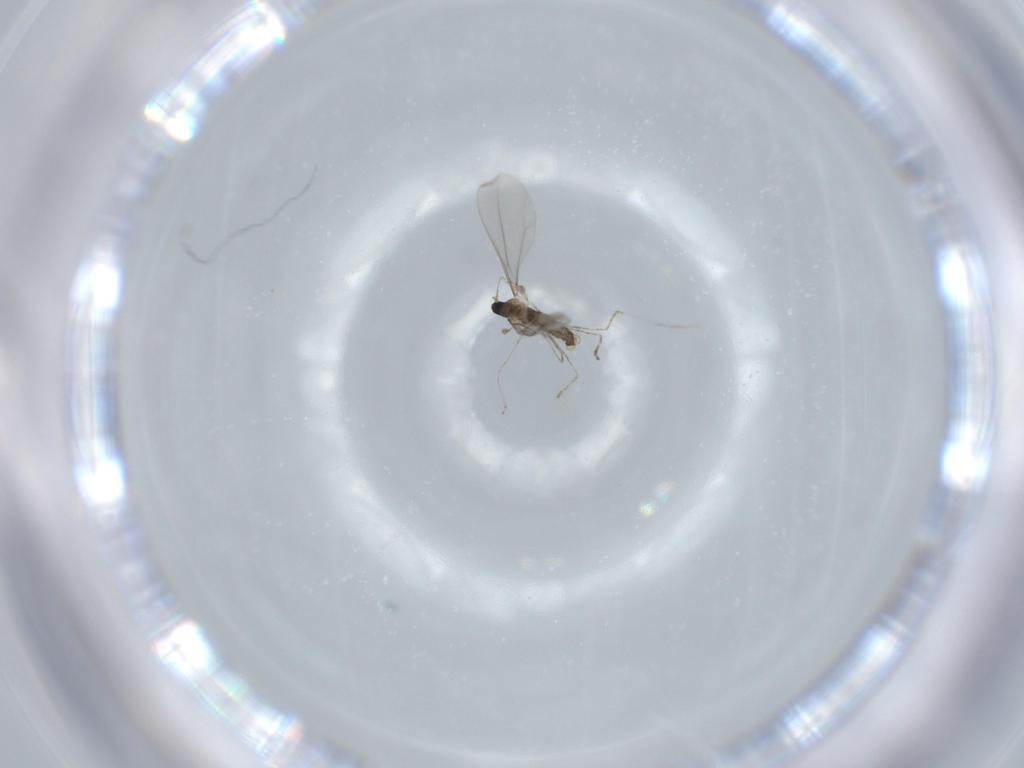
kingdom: Animalia
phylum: Arthropoda
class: Insecta
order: Diptera
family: Cecidomyiidae
